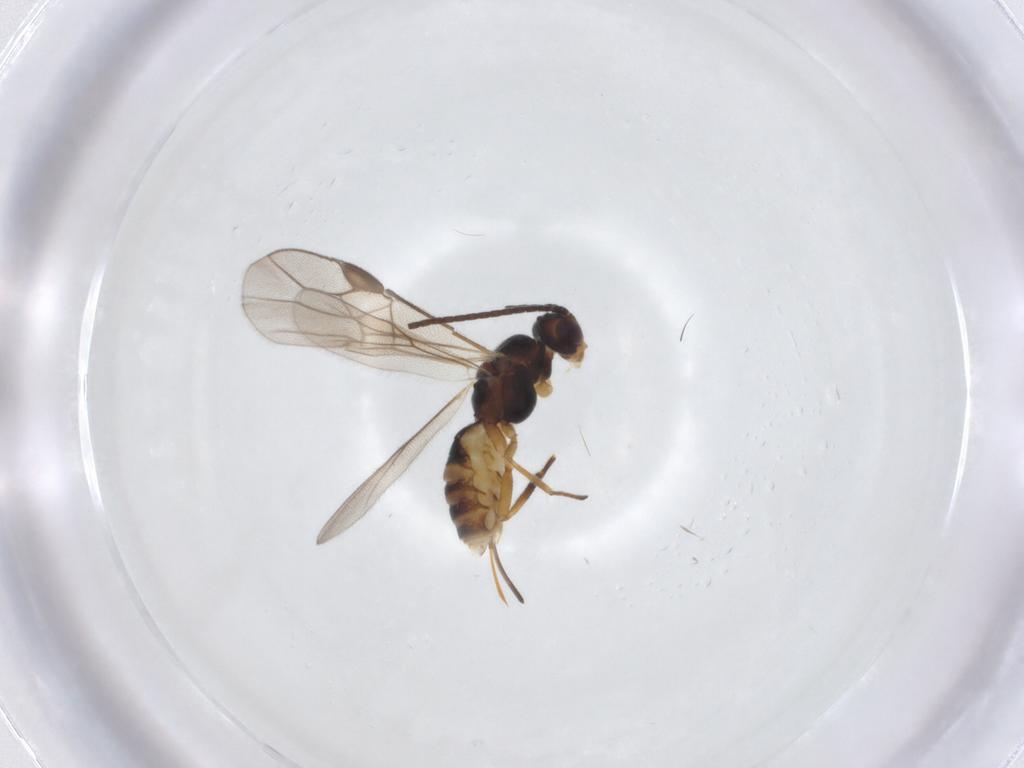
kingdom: Animalia
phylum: Arthropoda
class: Insecta
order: Hymenoptera
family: Braconidae
